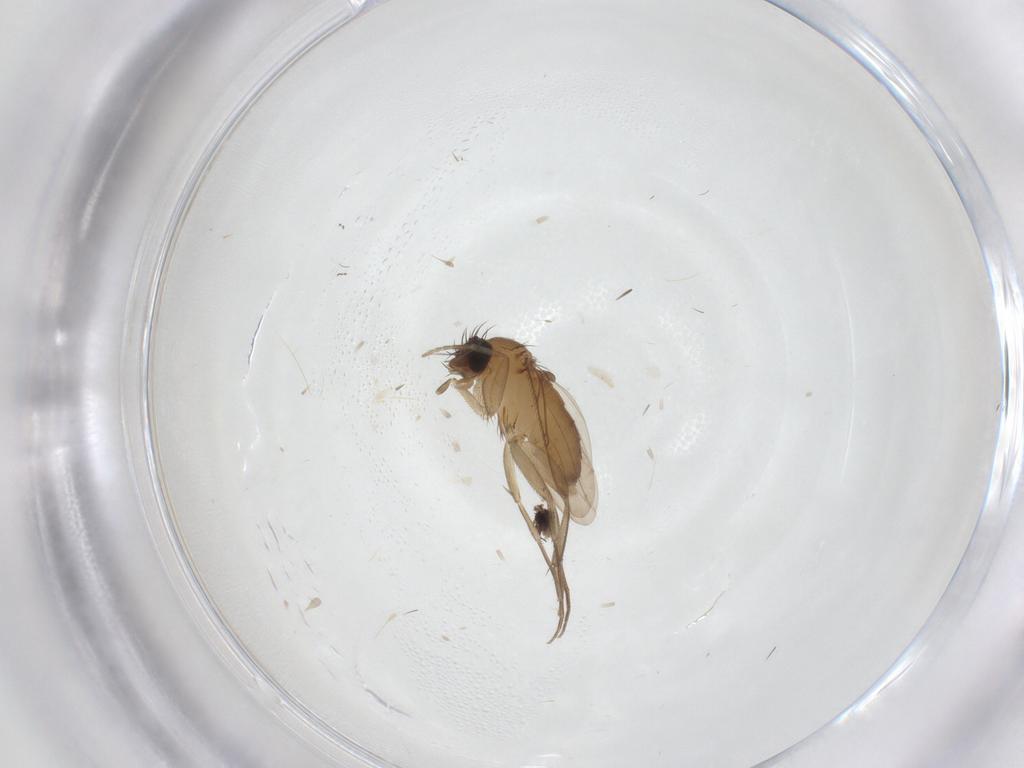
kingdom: Animalia
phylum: Arthropoda
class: Insecta
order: Diptera
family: Phoridae
